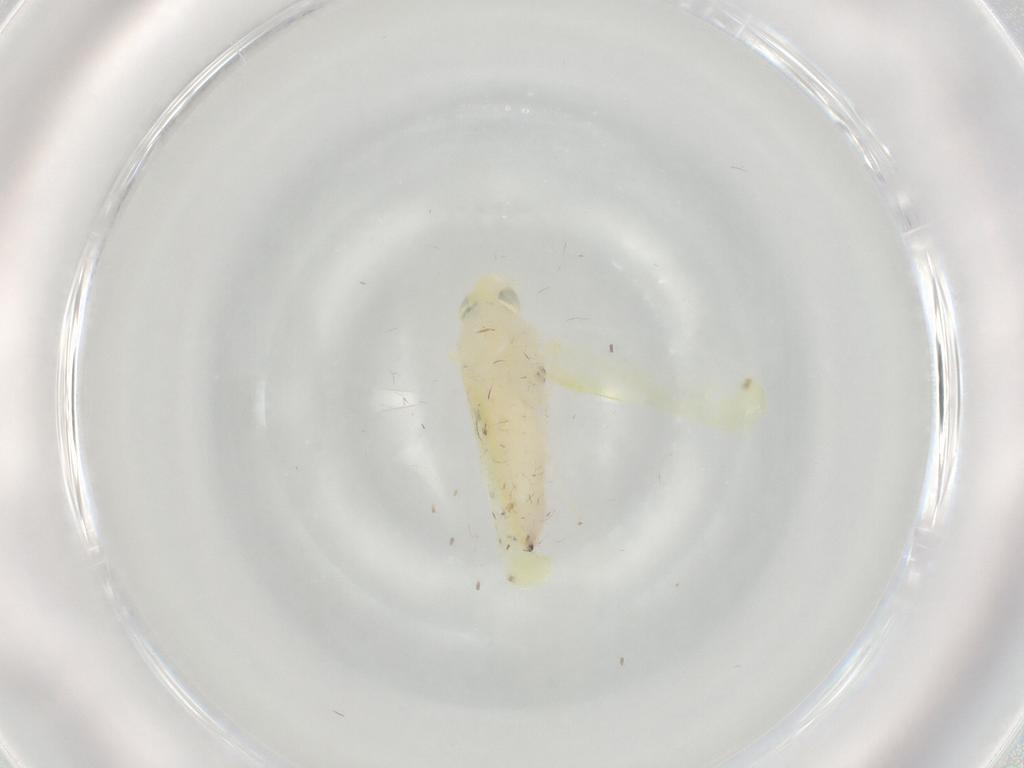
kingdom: Animalia
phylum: Arthropoda
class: Insecta
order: Hemiptera
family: Cicadellidae
